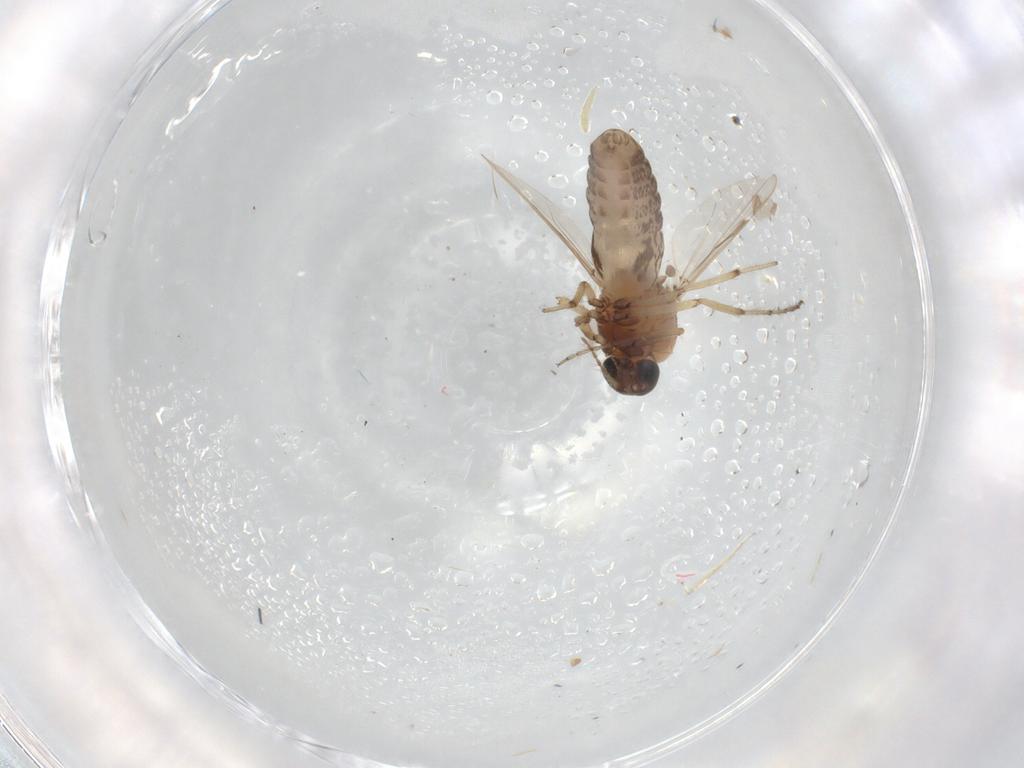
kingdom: Animalia
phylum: Arthropoda
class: Insecta
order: Diptera
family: Ceratopogonidae
